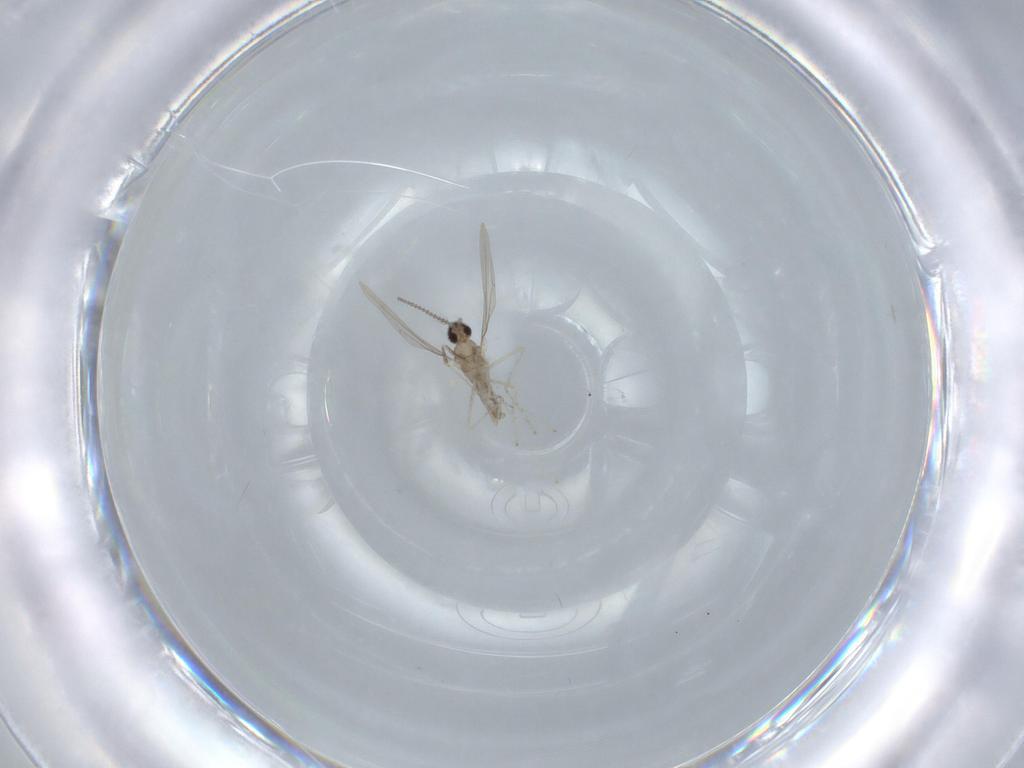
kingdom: Animalia
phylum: Arthropoda
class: Insecta
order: Diptera
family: Cecidomyiidae
